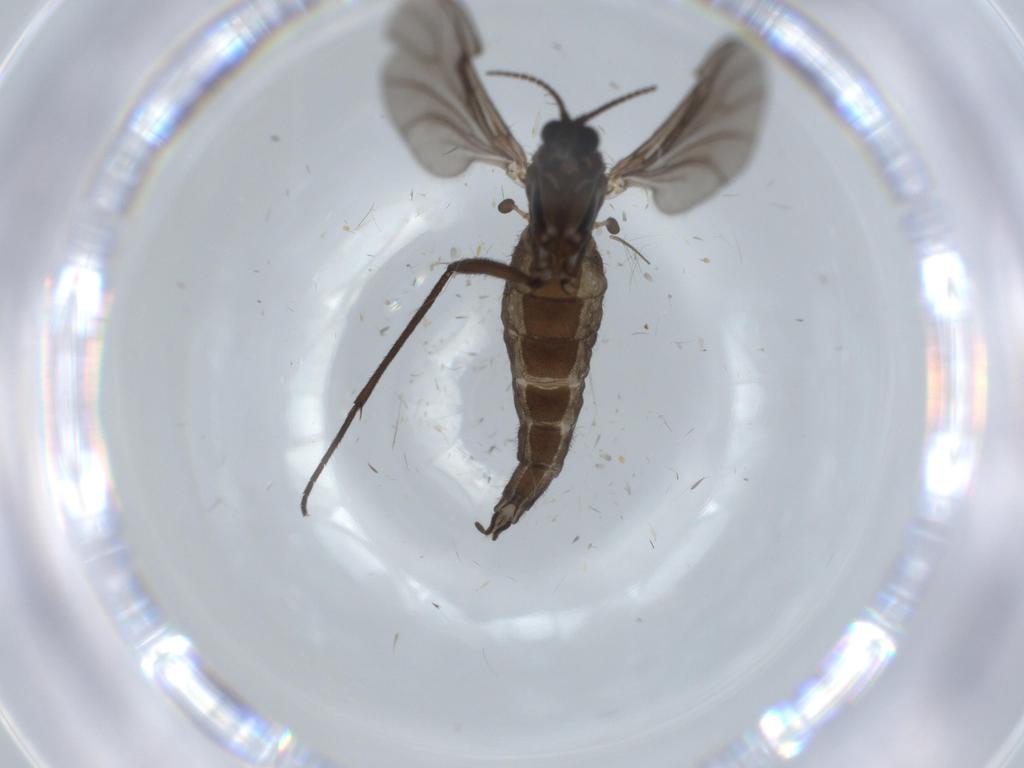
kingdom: Animalia
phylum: Arthropoda
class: Insecta
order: Diptera
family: Sciaridae
